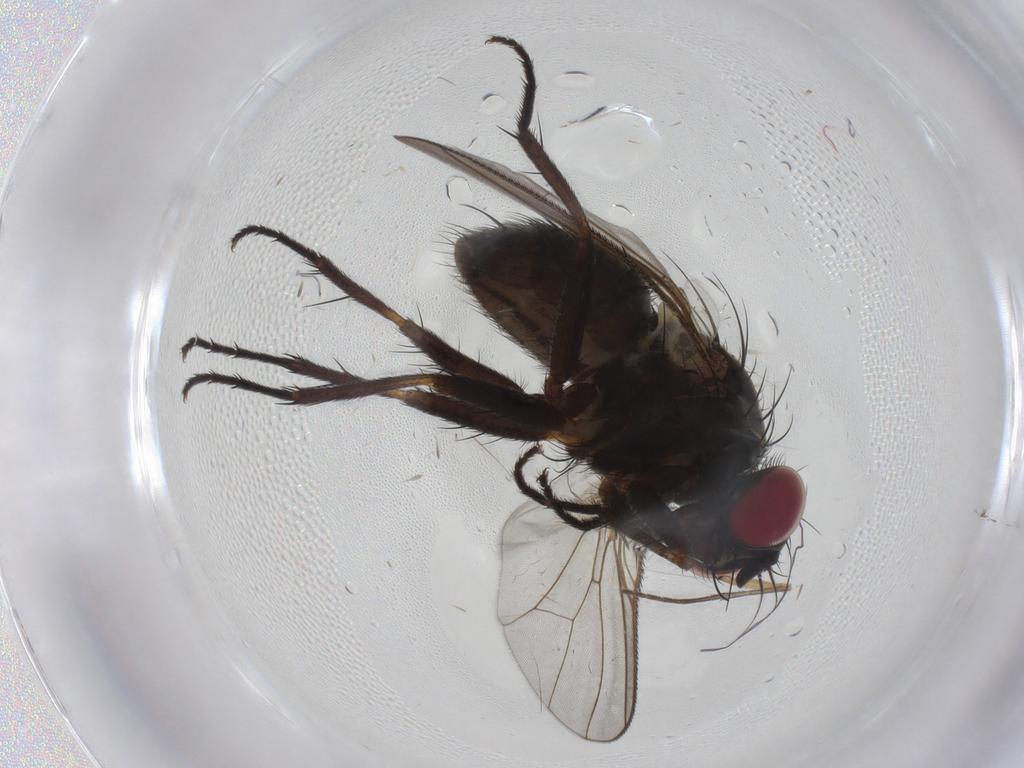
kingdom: Animalia
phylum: Arthropoda
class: Insecta
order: Diptera
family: Muscidae
